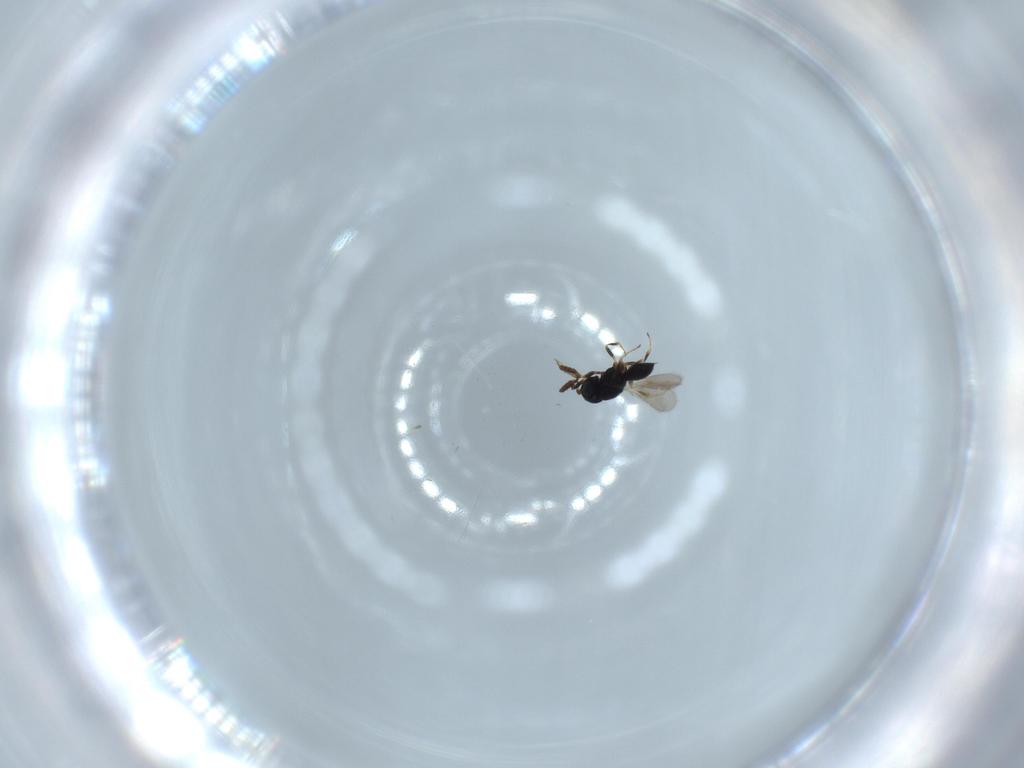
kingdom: Animalia
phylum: Arthropoda
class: Insecta
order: Hymenoptera
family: Scelionidae
